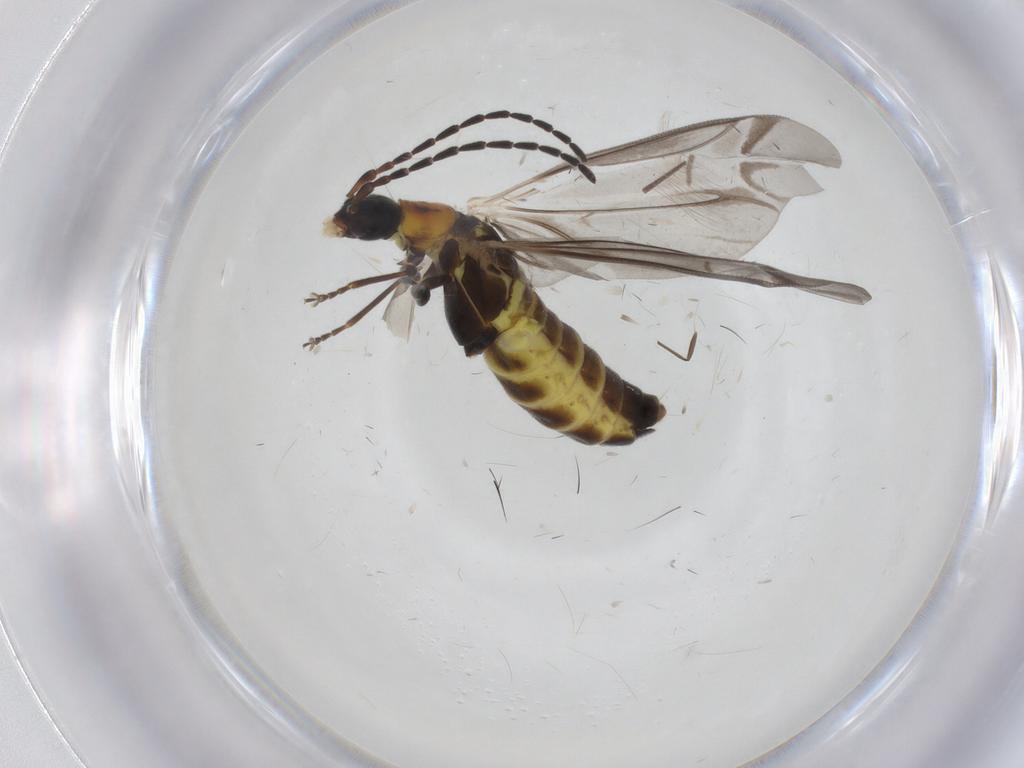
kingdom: Animalia
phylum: Arthropoda
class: Insecta
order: Coleoptera
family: Cantharidae
